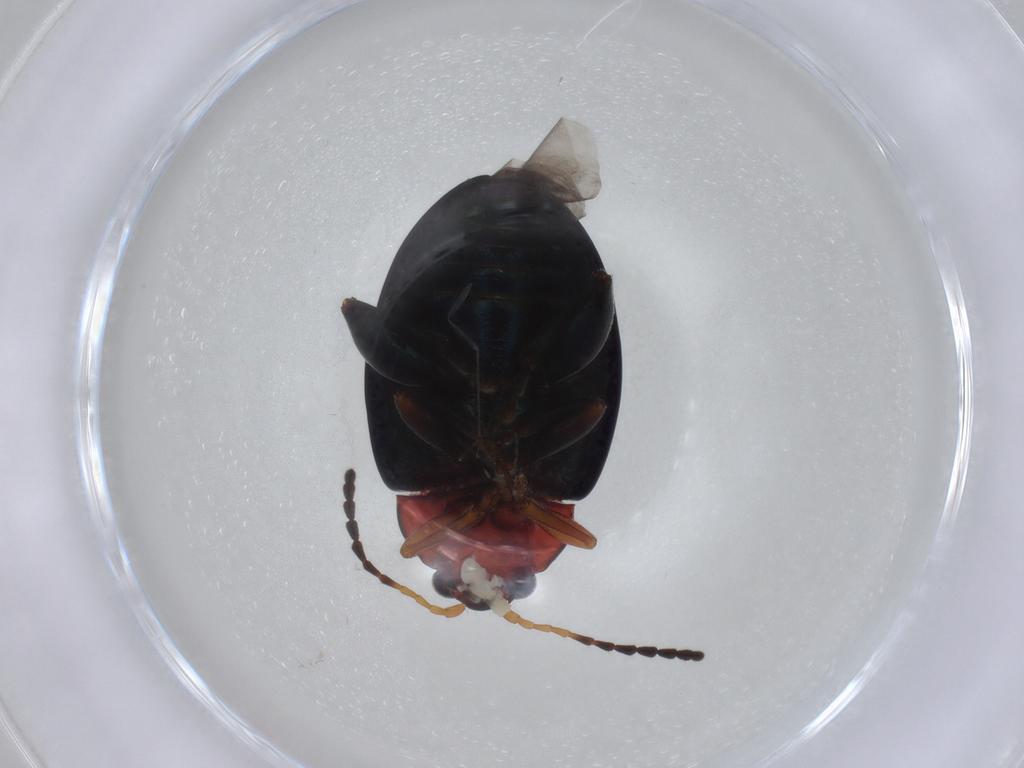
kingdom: Animalia
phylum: Arthropoda
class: Insecta
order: Coleoptera
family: Chrysomelidae
